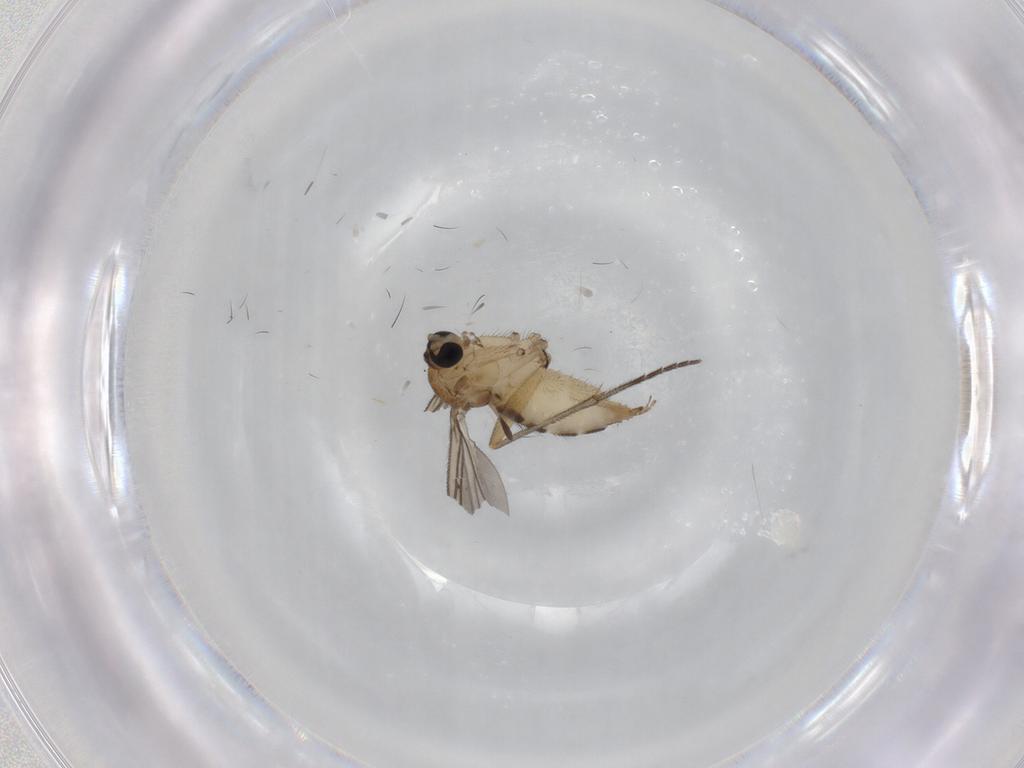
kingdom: Animalia
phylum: Arthropoda
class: Insecta
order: Diptera
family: Sciaridae
